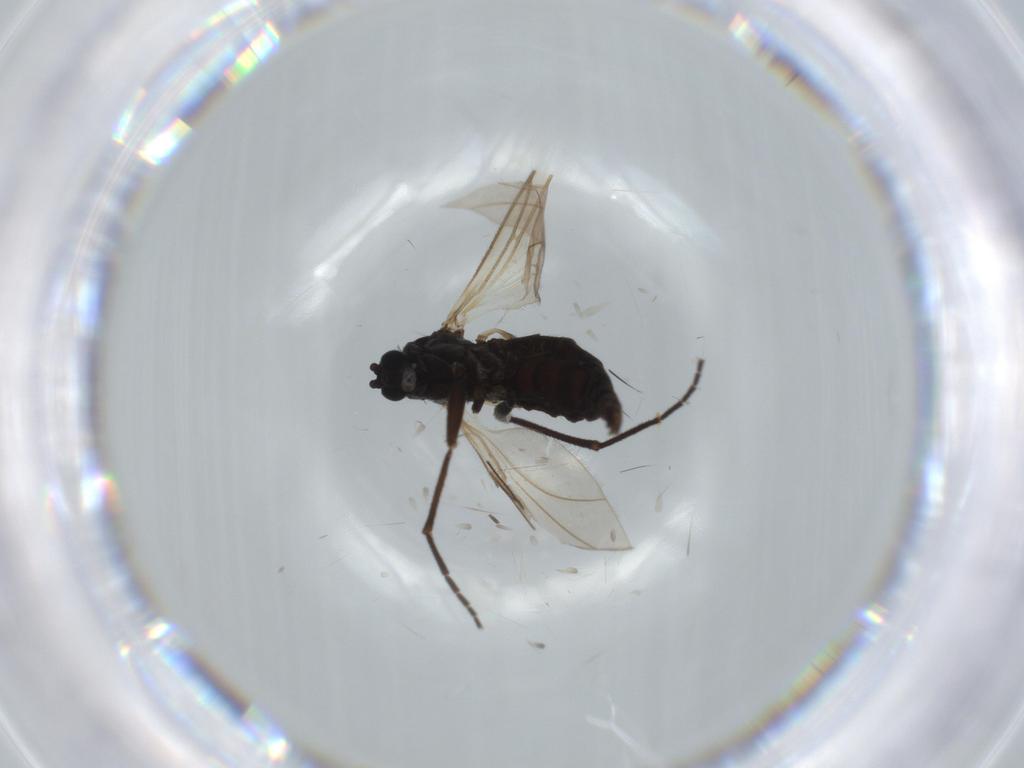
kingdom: Animalia
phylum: Arthropoda
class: Insecta
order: Diptera
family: Sciaridae
